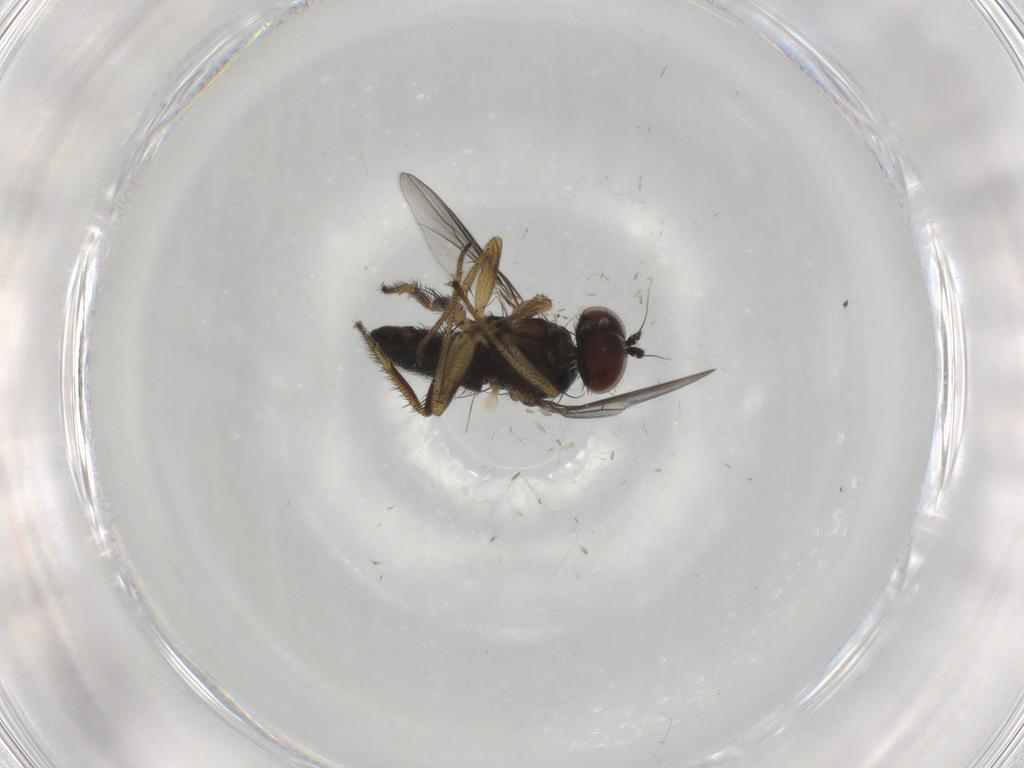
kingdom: Animalia
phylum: Arthropoda
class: Insecta
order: Diptera
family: Dolichopodidae
